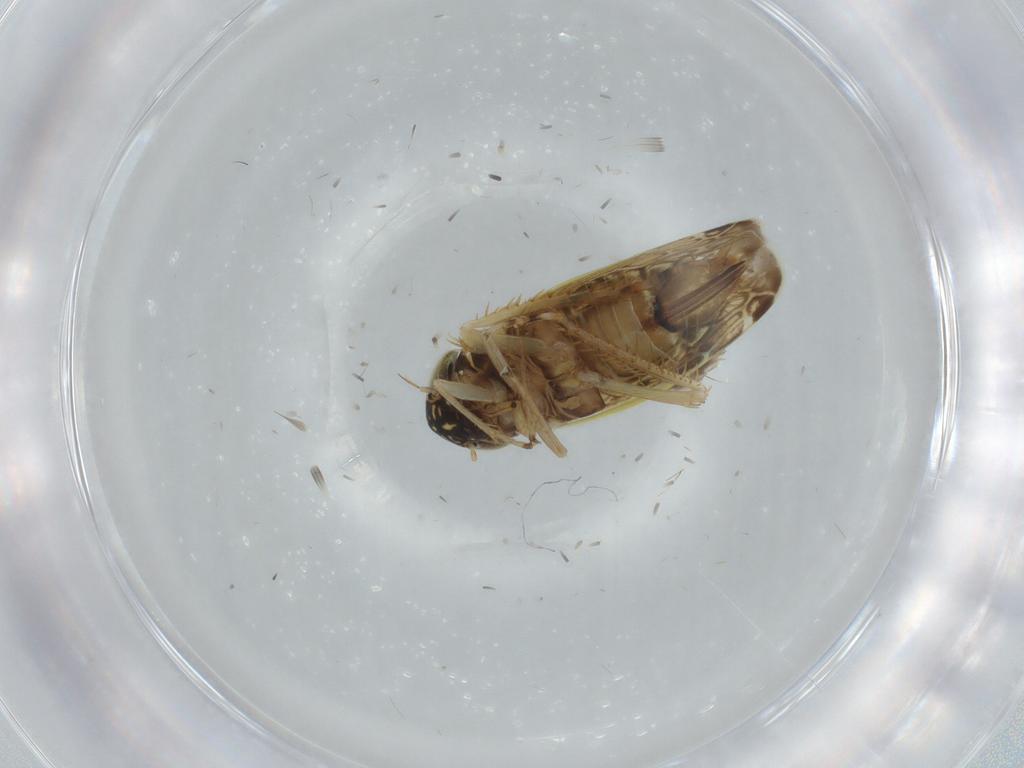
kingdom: Animalia
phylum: Arthropoda
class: Insecta
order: Hemiptera
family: Cicadellidae
